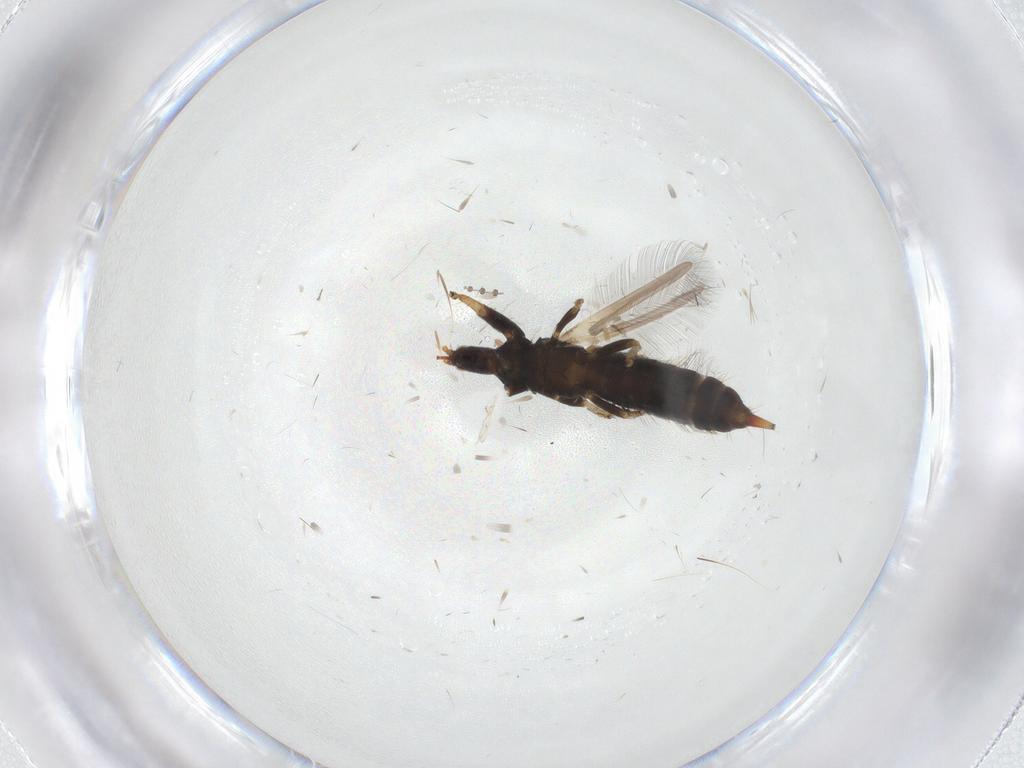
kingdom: Animalia
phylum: Arthropoda
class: Insecta
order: Thysanoptera
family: Phlaeothripidae
